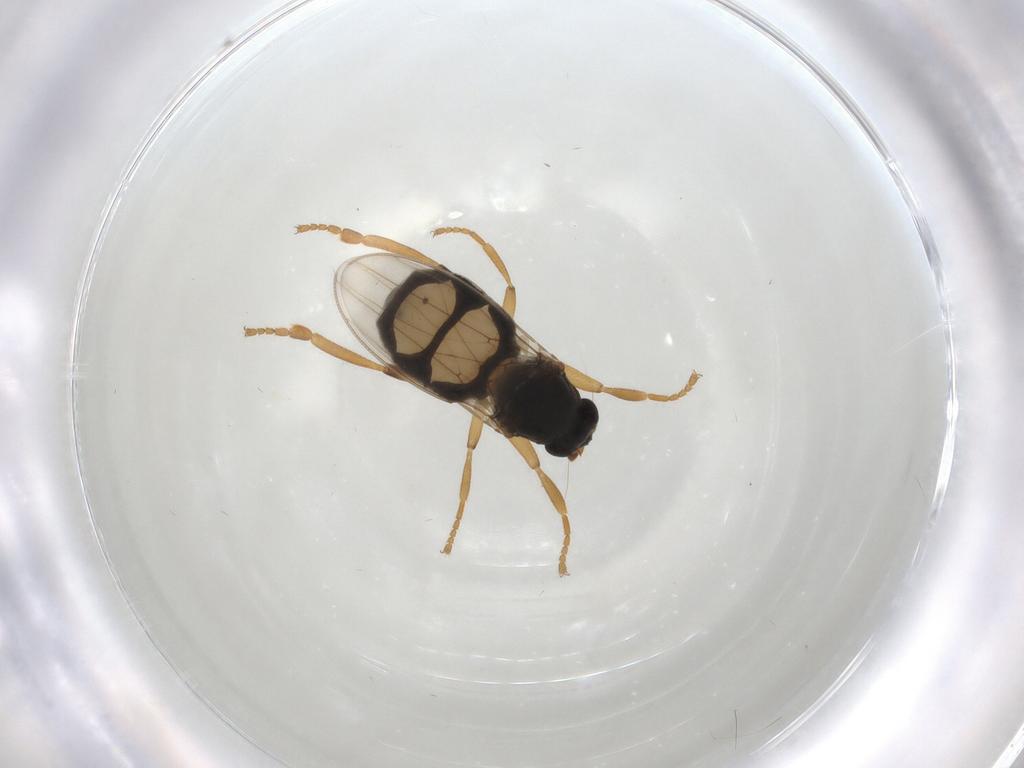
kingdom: Animalia
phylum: Arthropoda
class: Insecta
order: Diptera
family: Sphaeroceridae
